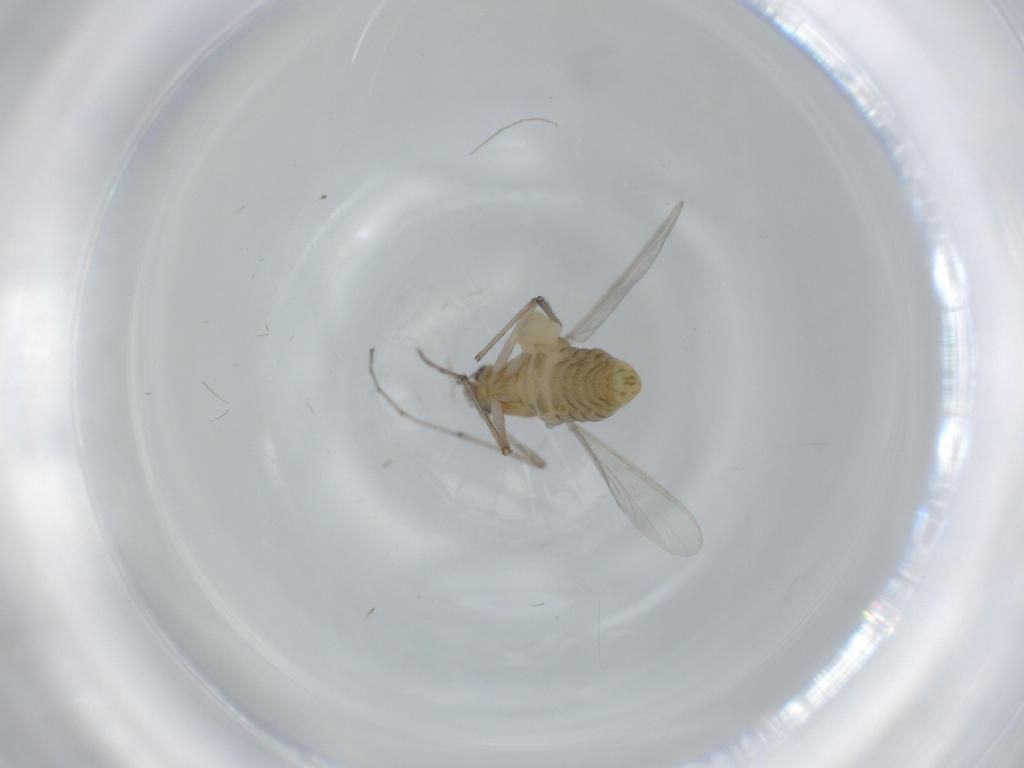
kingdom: Animalia
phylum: Arthropoda
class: Insecta
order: Diptera
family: Chironomidae
